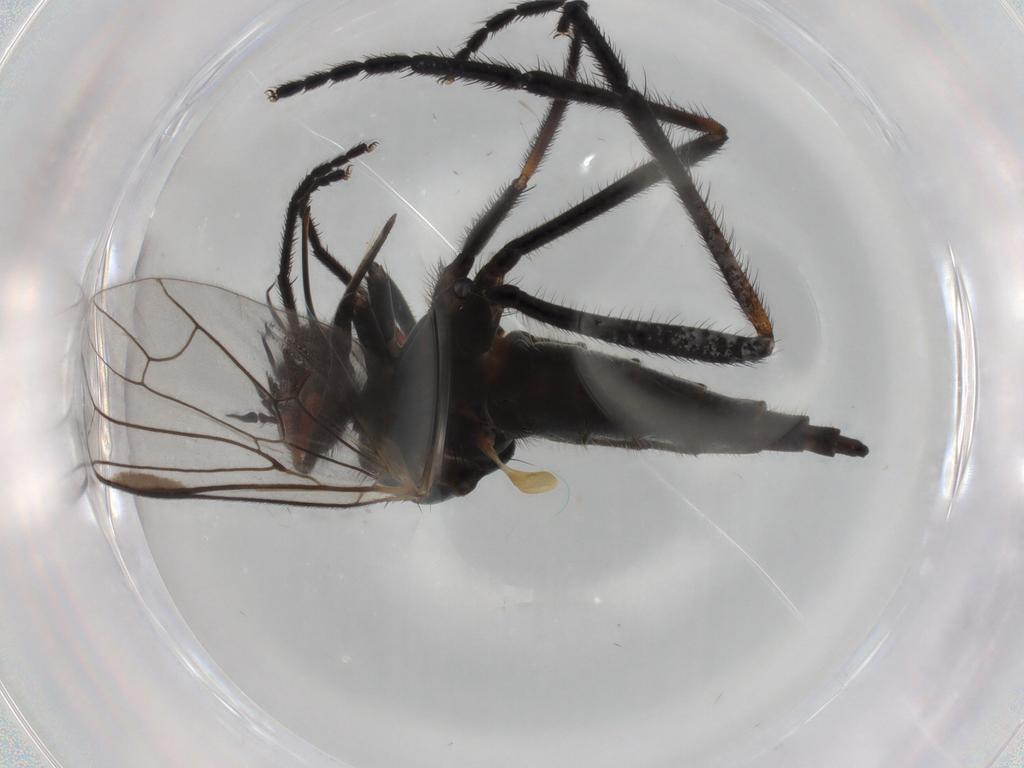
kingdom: Animalia
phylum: Arthropoda
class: Insecta
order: Diptera
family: Empididae
